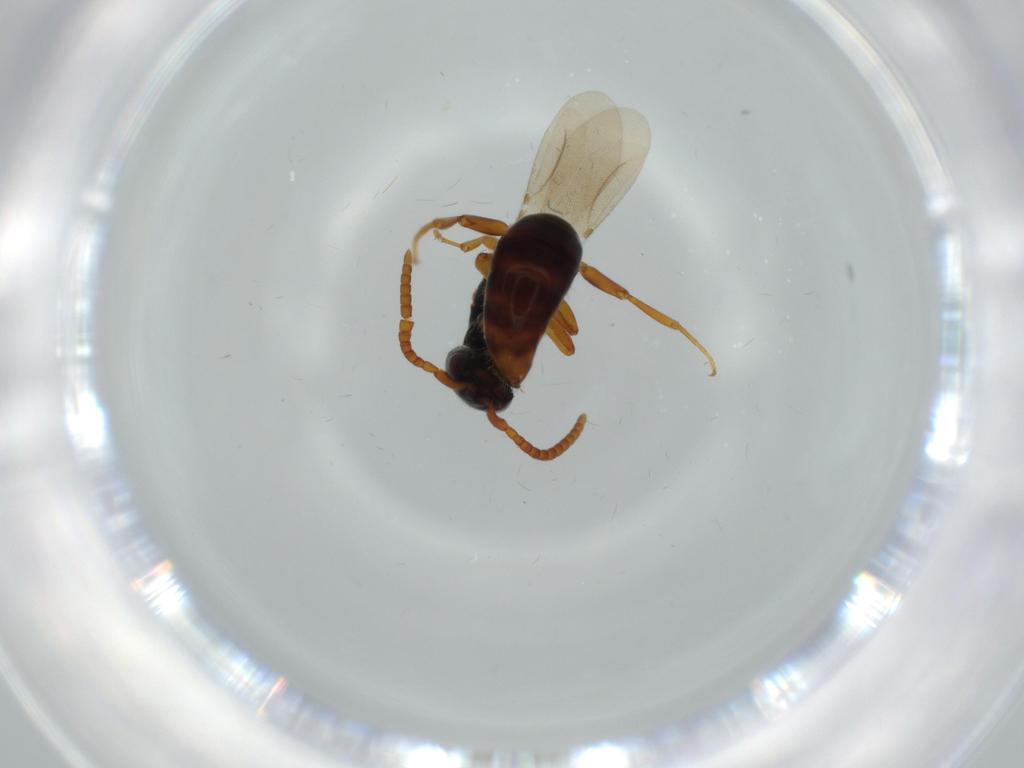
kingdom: Animalia
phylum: Arthropoda
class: Insecta
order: Hymenoptera
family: Bethylidae
